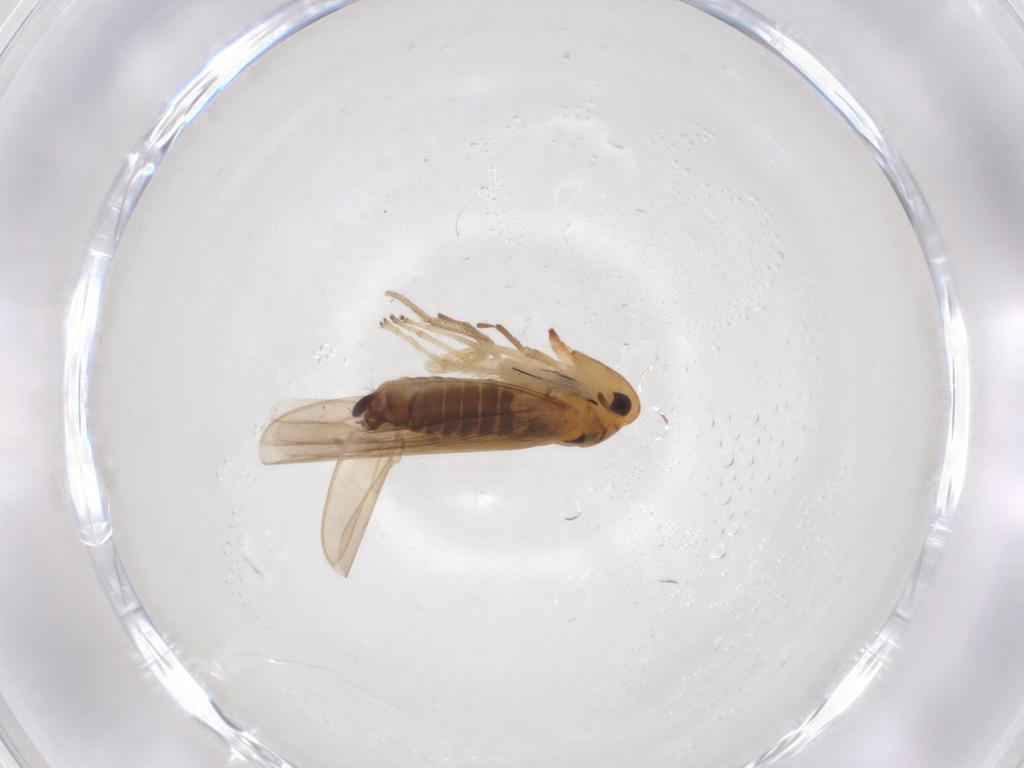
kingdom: Animalia
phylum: Arthropoda
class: Insecta
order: Hemiptera
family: Cicadellidae
